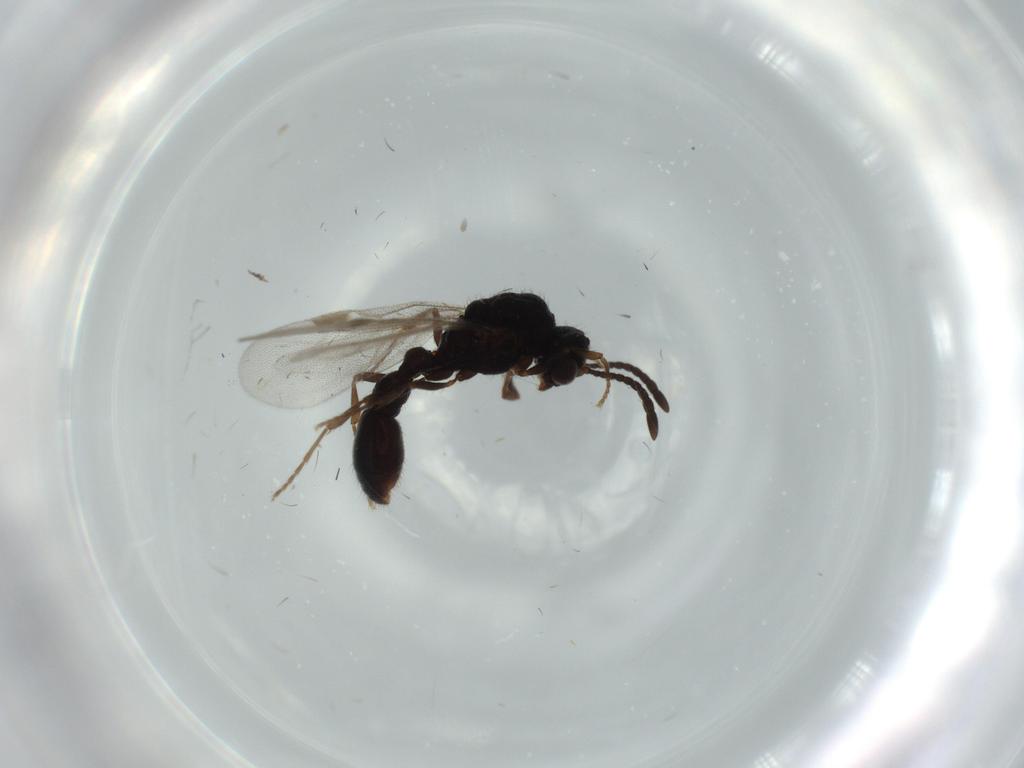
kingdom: Animalia
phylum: Arthropoda
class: Insecta
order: Hymenoptera
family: Formicidae
